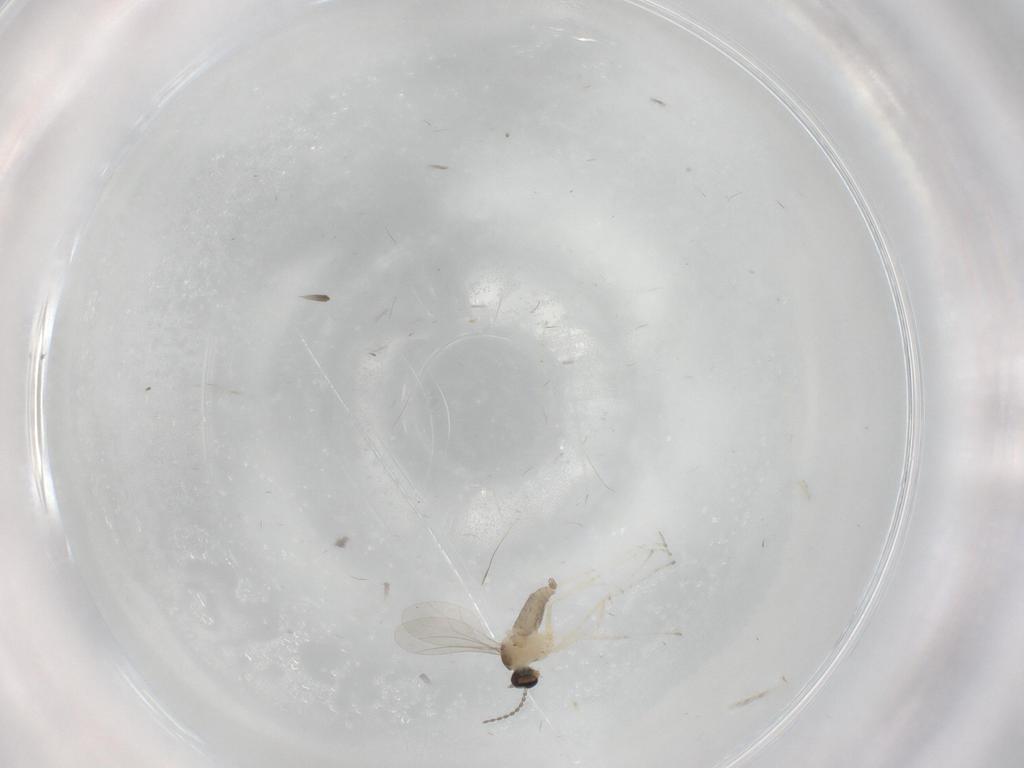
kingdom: Animalia
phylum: Arthropoda
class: Insecta
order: Diptera
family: Cecidomyiidae
